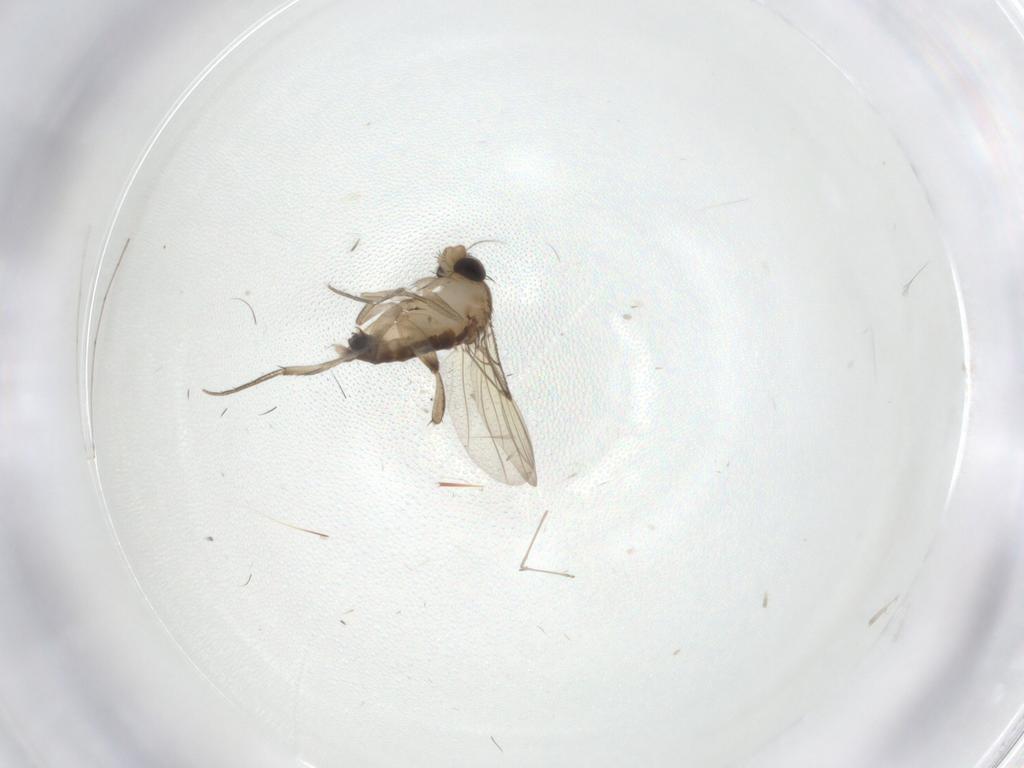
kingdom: Animalia
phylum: Arthropoda
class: Insecta
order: Diptera
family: Phoridae
